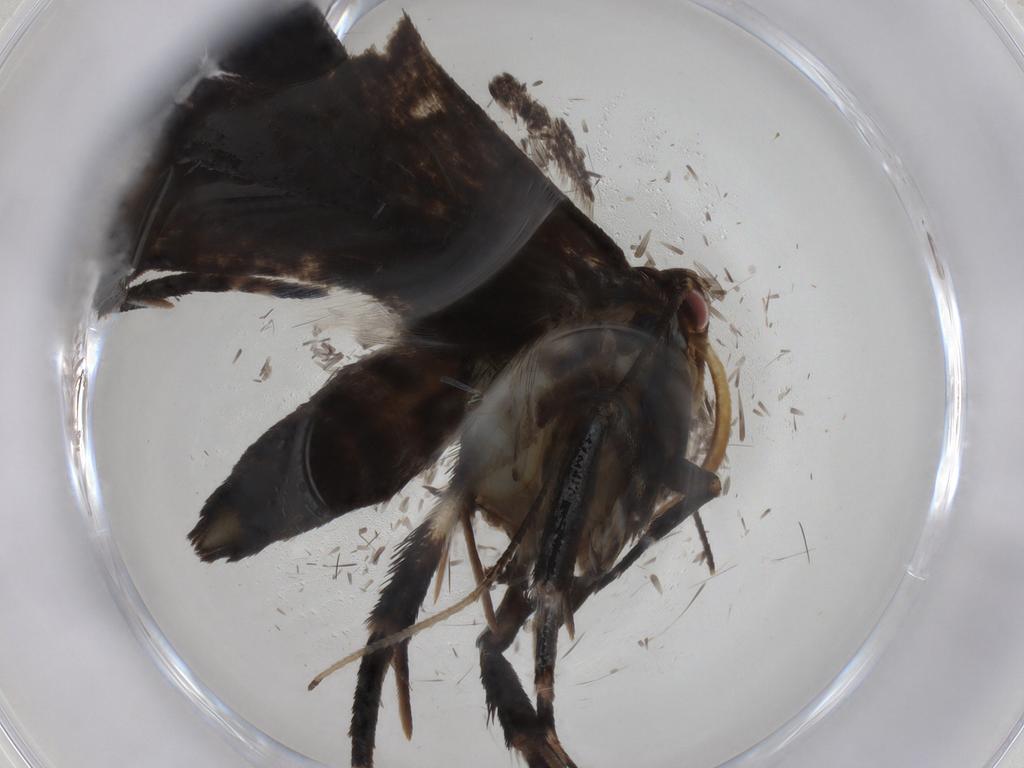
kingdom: Animalia
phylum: Arthropoda
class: Insecta
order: Lepidoptera
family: Gelechiidae
